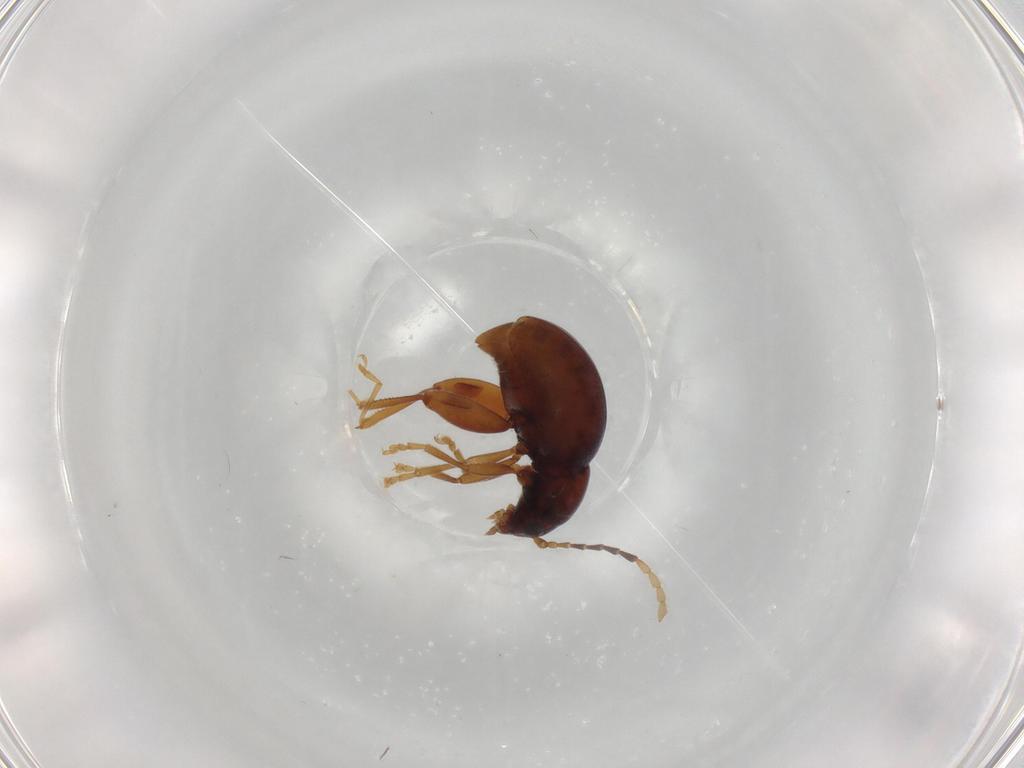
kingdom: Animalia
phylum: Arthropoda
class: Insecta
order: Coleoptera
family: Chrysomelidae
